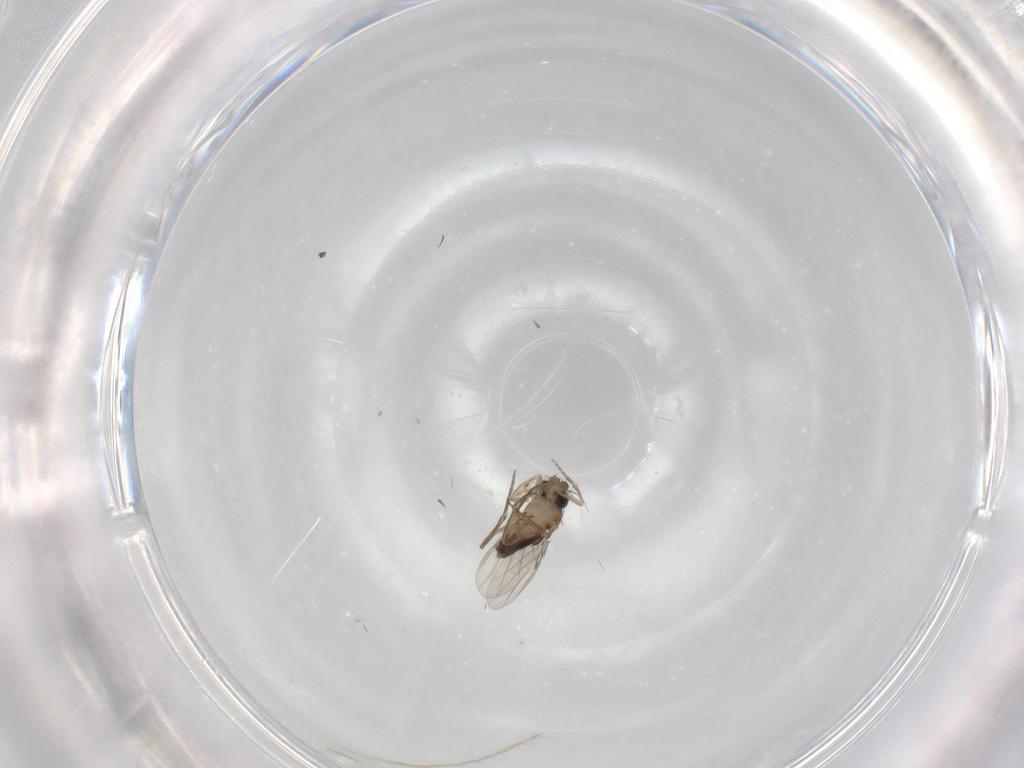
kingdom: Animalia
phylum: Arthropoda
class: Insecta
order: Diptera
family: Phoridae
